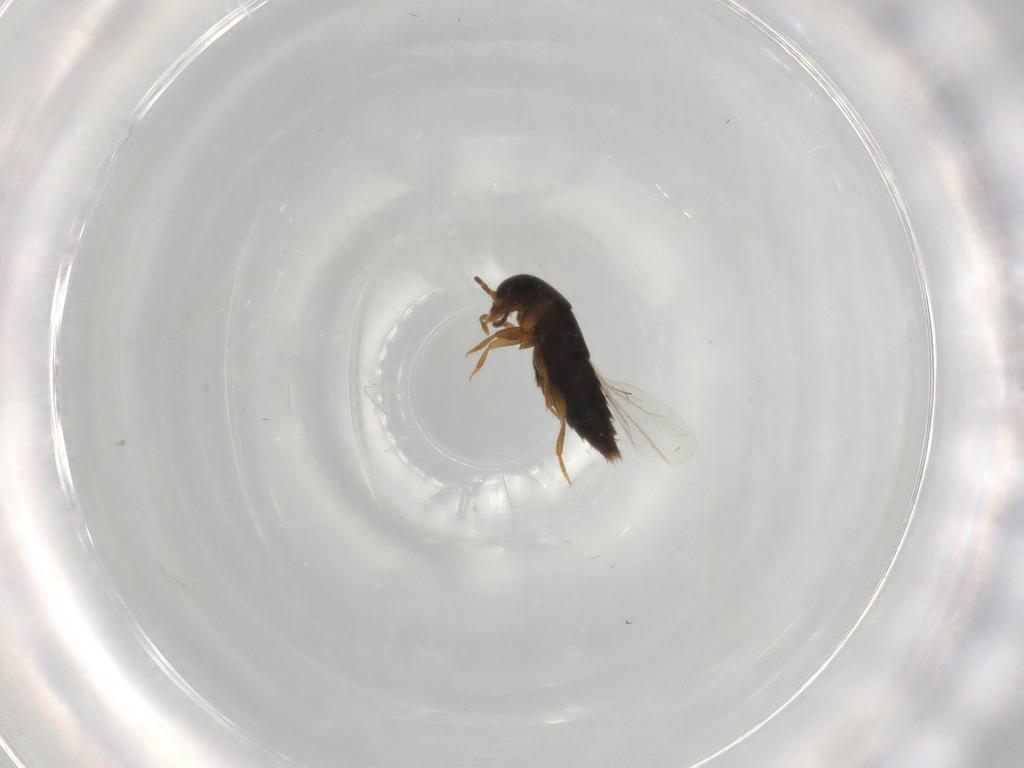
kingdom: Animalia
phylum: Arthropoda
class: Insecta
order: Coleoptera
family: Staphylinidae
